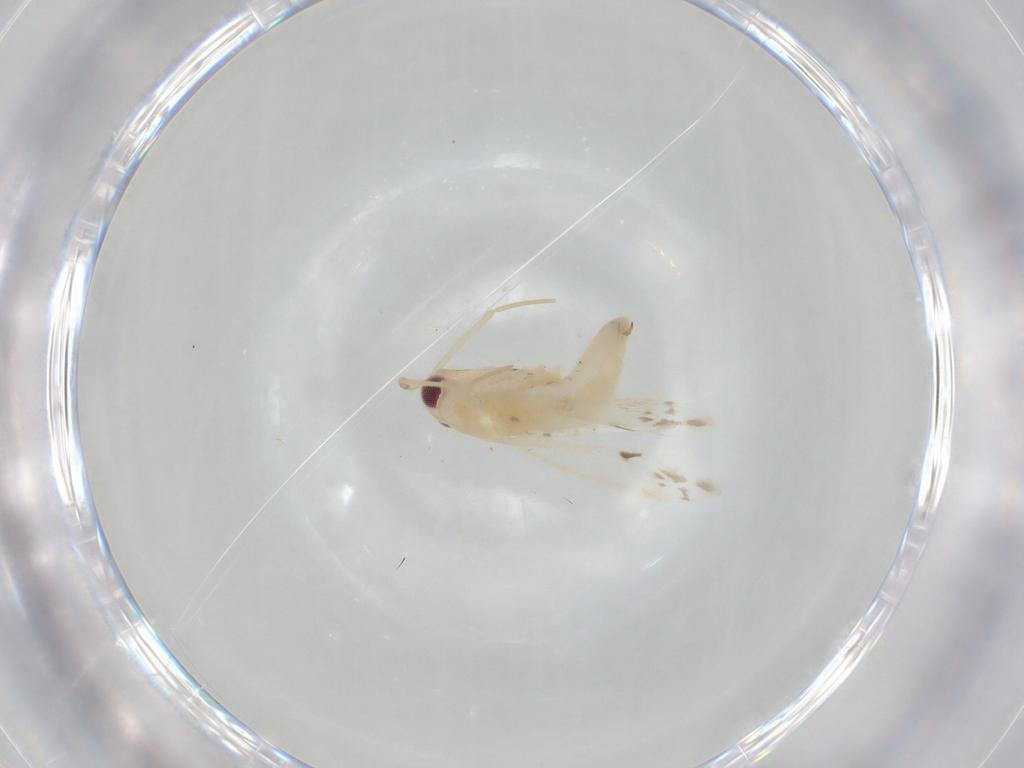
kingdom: Animalia
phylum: Arthropoda
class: Insecta
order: Hemiptera
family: Miridae
